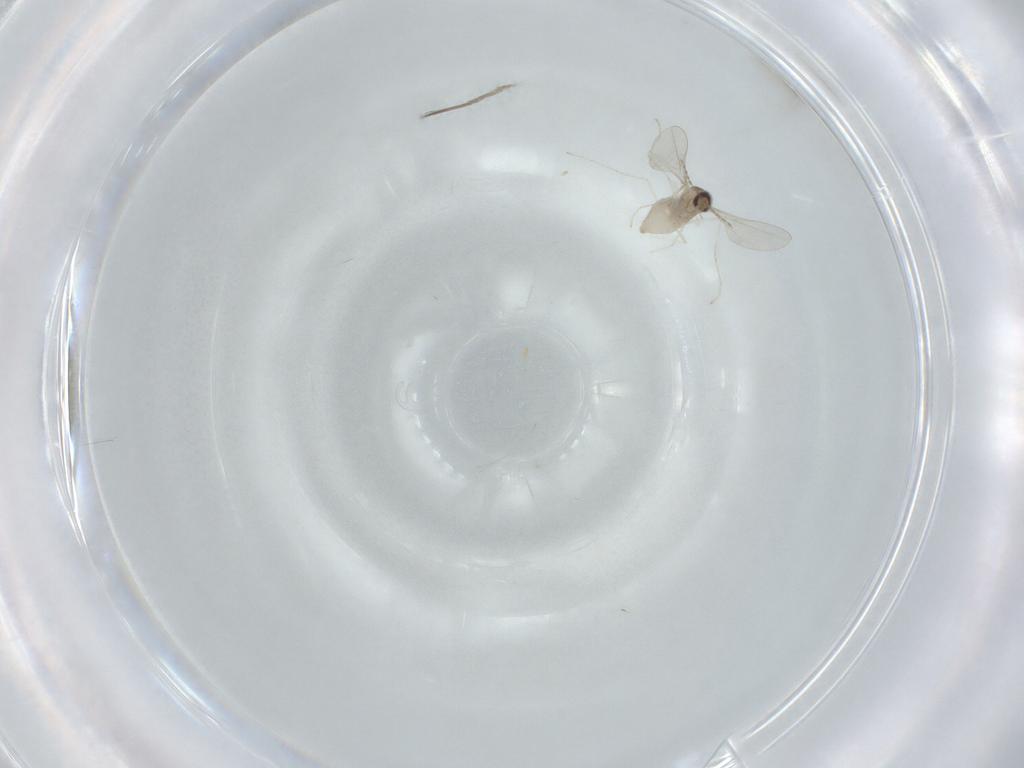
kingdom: Animalia
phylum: Arthropoda
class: Insecta
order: Diptera
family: Cecidomyiidae
